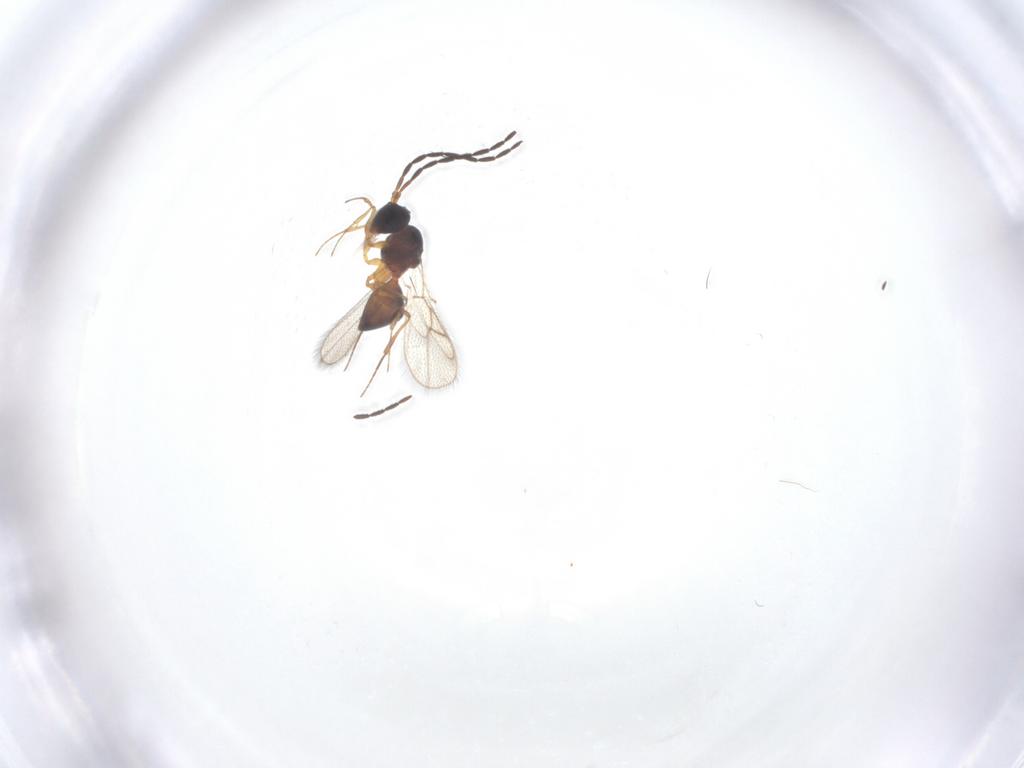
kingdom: Animalia
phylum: Arthropoda
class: Insecta
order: Hymenoptera
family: Figitidae
